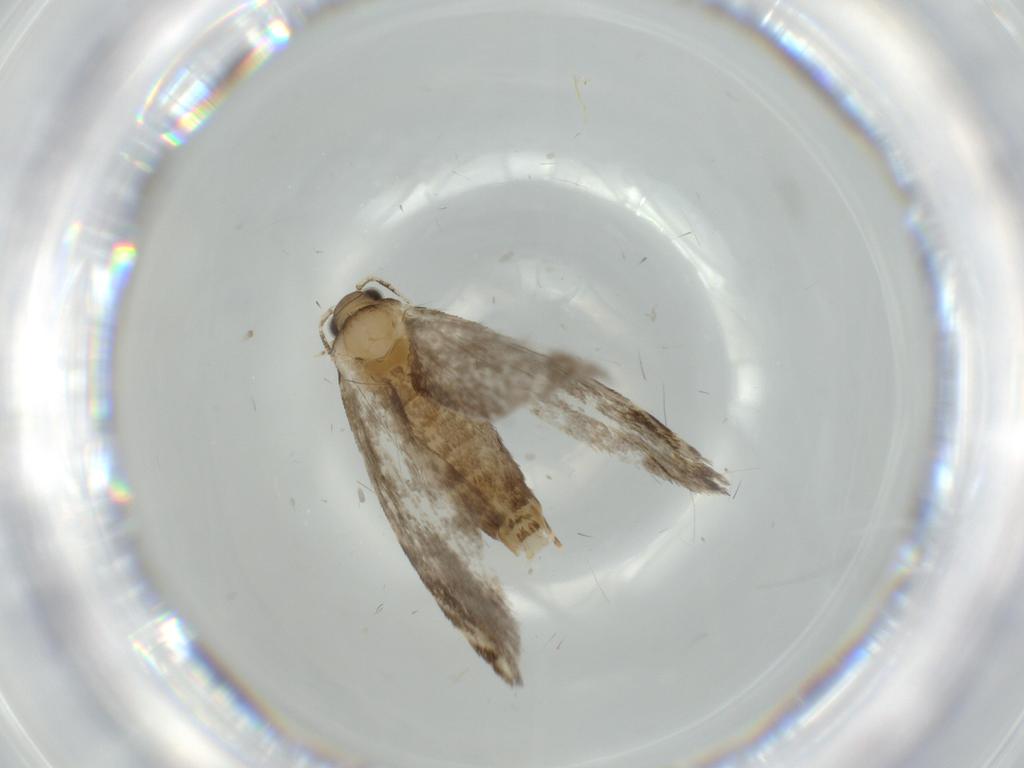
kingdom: Animalia
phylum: Arthropoda
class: Insecta
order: Lepidoptera
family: Tineidae
